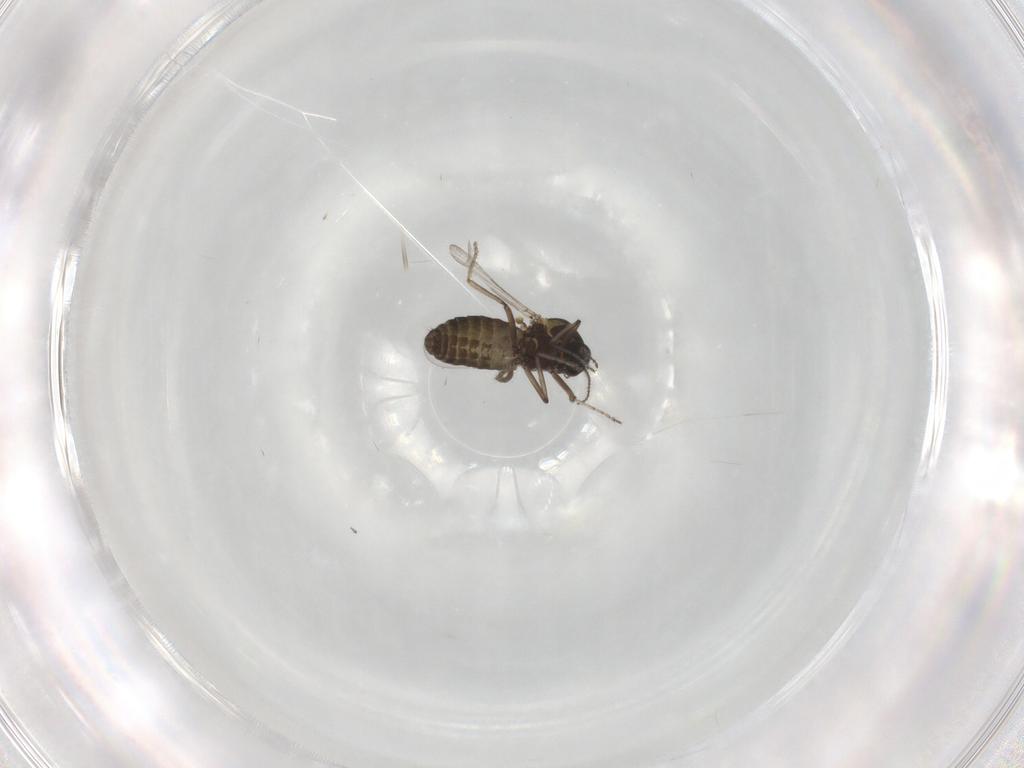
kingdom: Animalia
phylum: Arthropoda
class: Insecta
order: Diptera
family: Ceratopogonidae
